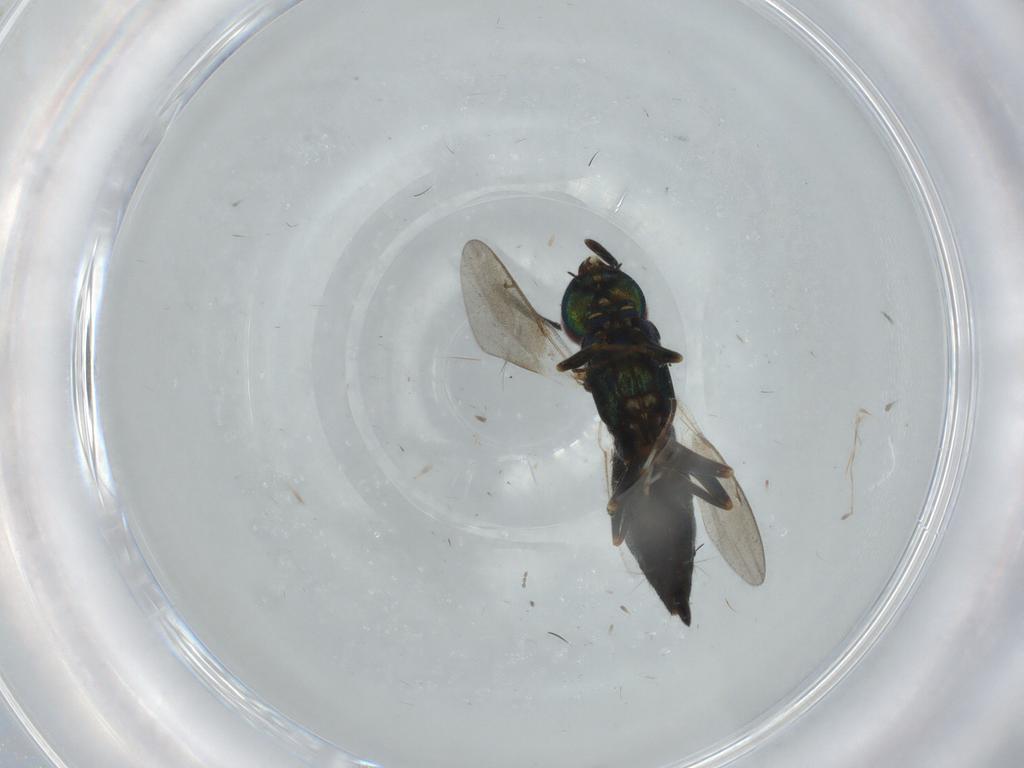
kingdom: Animalia
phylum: Arthropoda
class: Insecta
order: Hymenoptera
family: Eupelmidae
